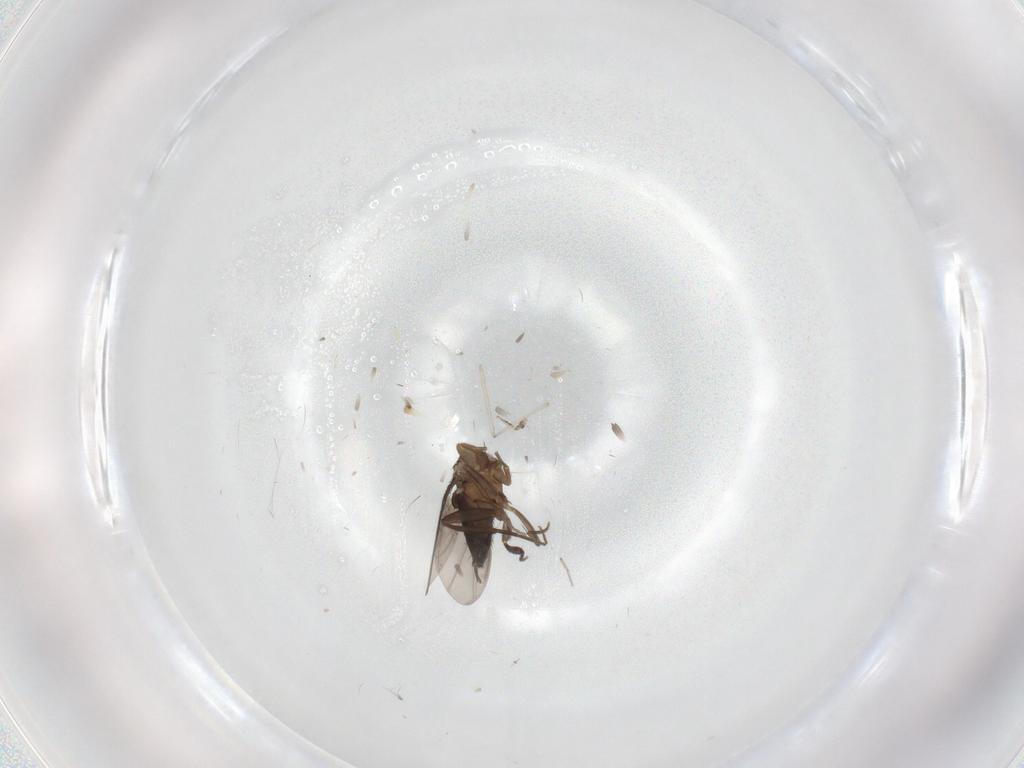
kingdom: Animalia
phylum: Arthropoda
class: Insecta
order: Diptera
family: Phoridae
